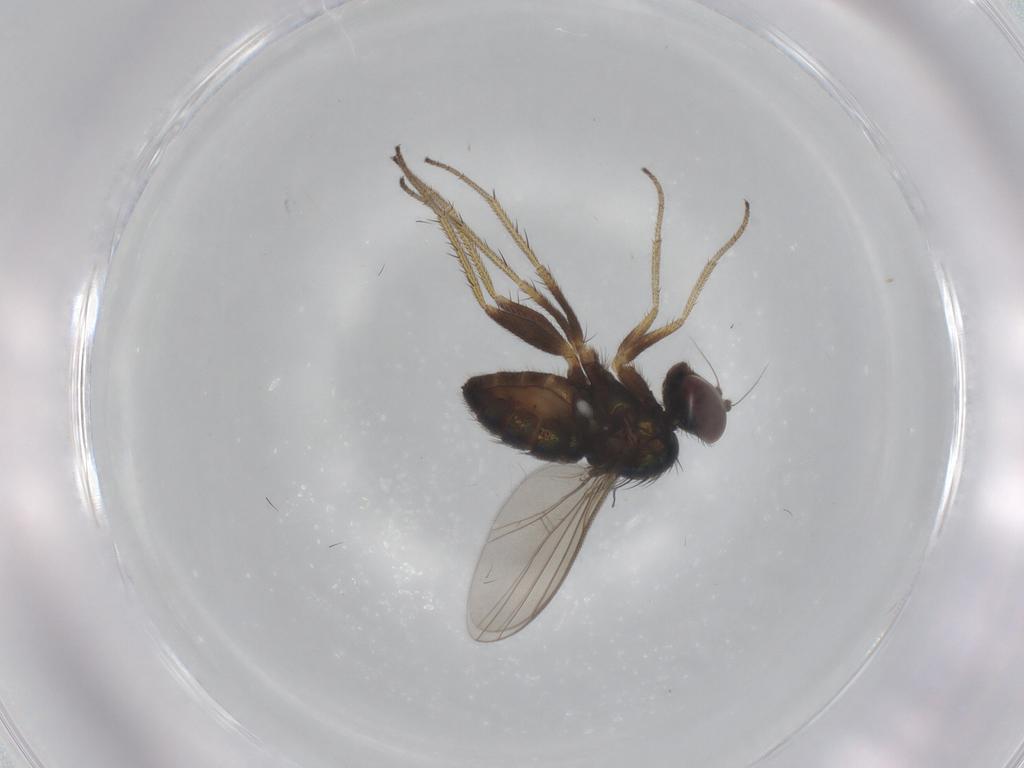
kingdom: Animalia
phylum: Arthropoda
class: Insecta
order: Diptera
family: Dolichopodidae
